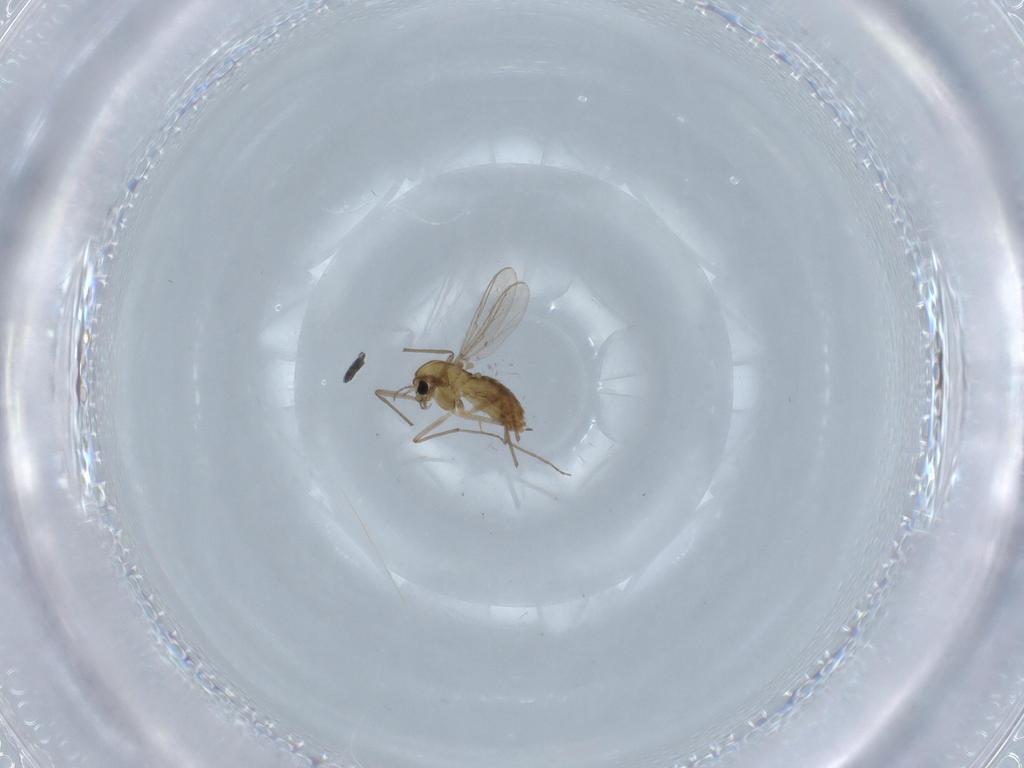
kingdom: Animalia
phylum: Arthropoda
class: Insecta
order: Diptera
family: Chironomidae
